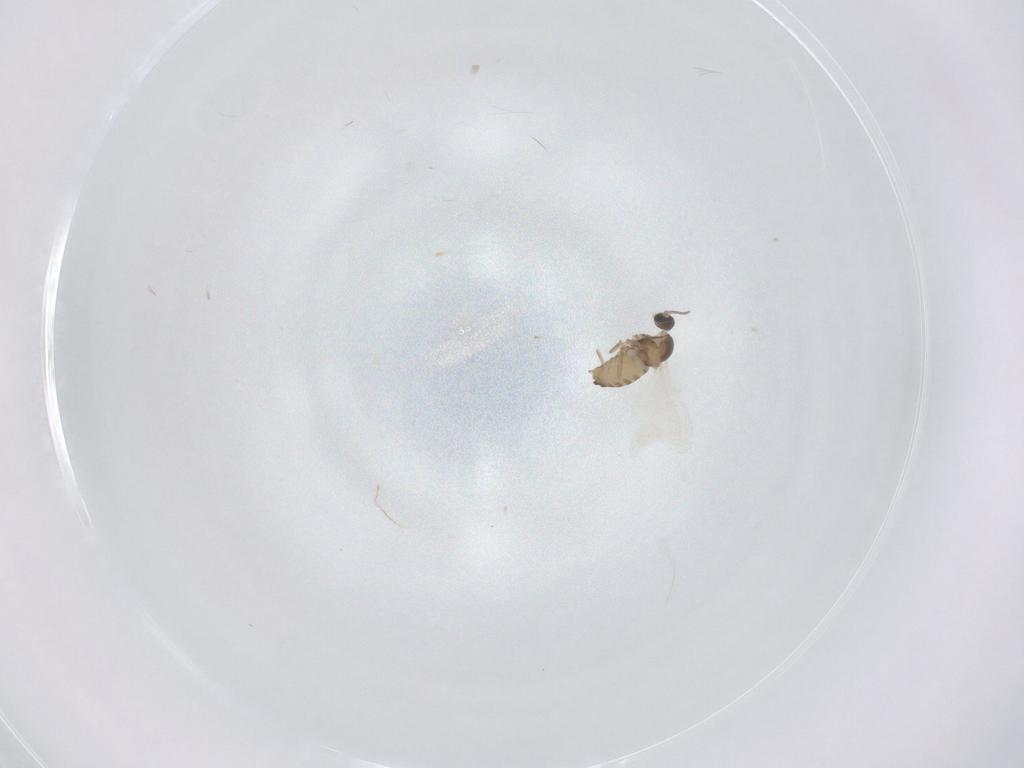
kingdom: Animalia
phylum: Arthropoda
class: Insecta
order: Diptera
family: Cecidomyiidae
